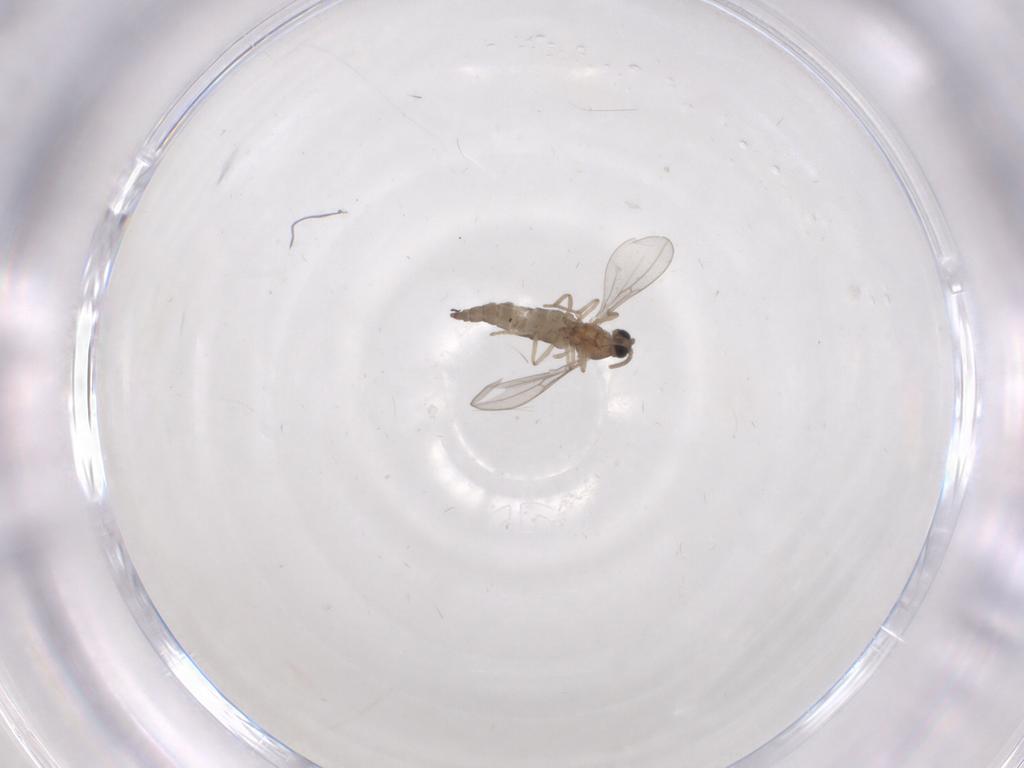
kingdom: Animalia
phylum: Arthropoda
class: Insecta
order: Diptera
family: Cecidomyiidae
